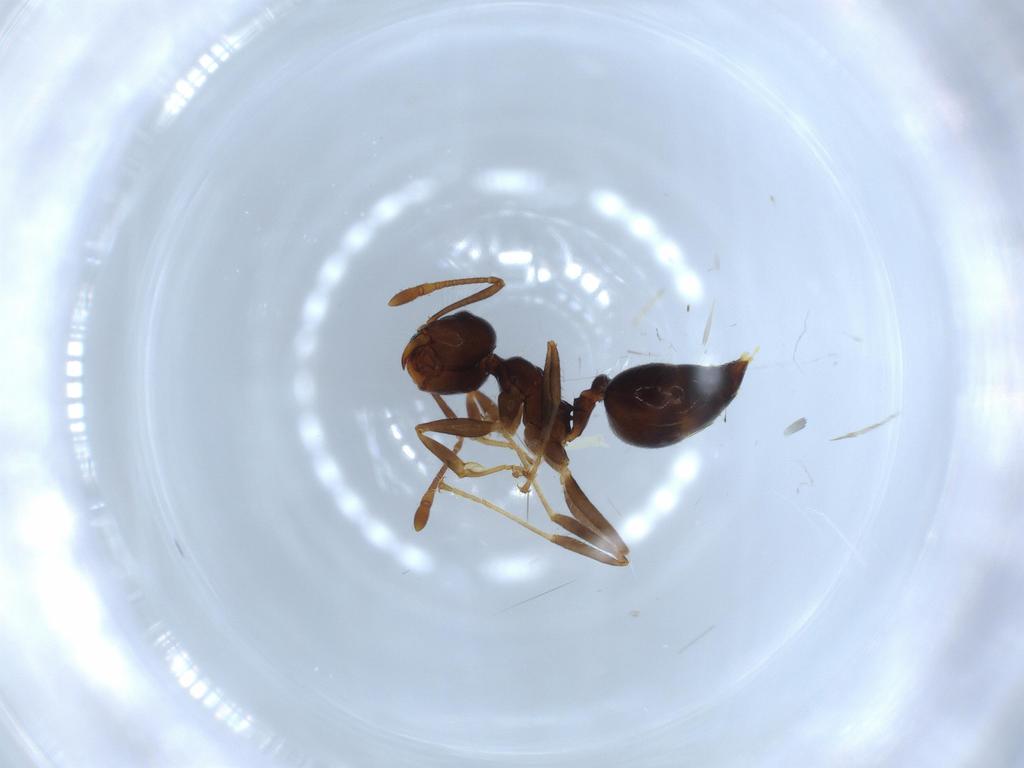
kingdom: Animalia
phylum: Arthropoda
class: Insecta
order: Hymenoptera
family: Formicidae
